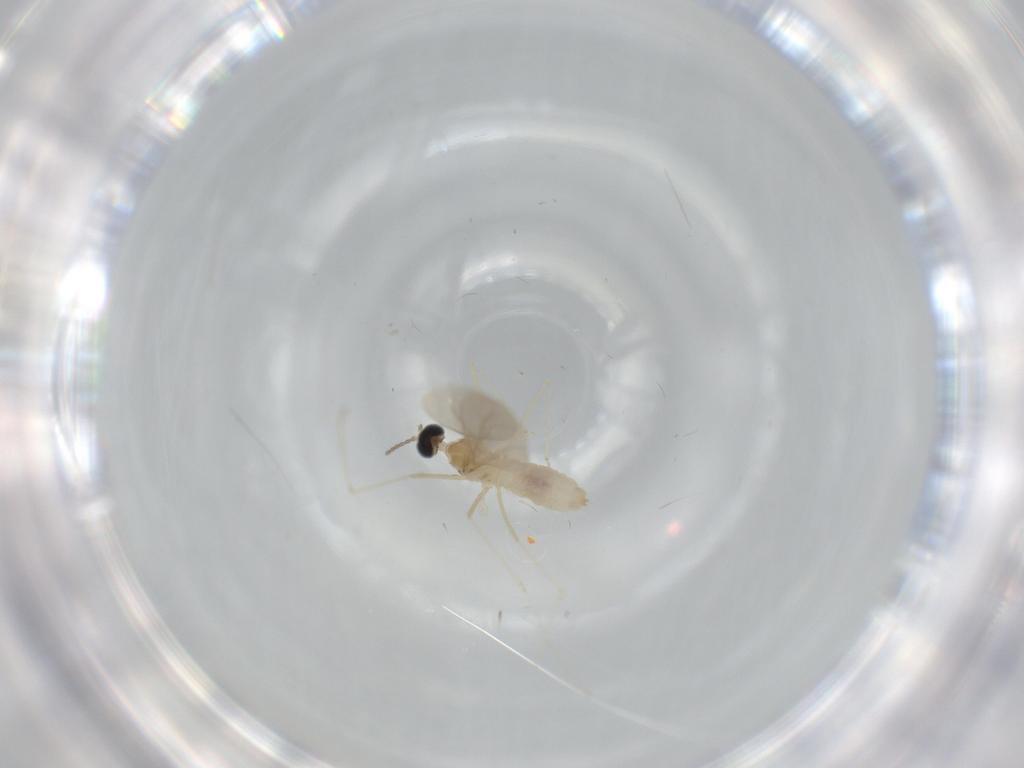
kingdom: Animalia
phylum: Arthropoda
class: Insecta
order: Diptera
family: Cecidomyiidae
